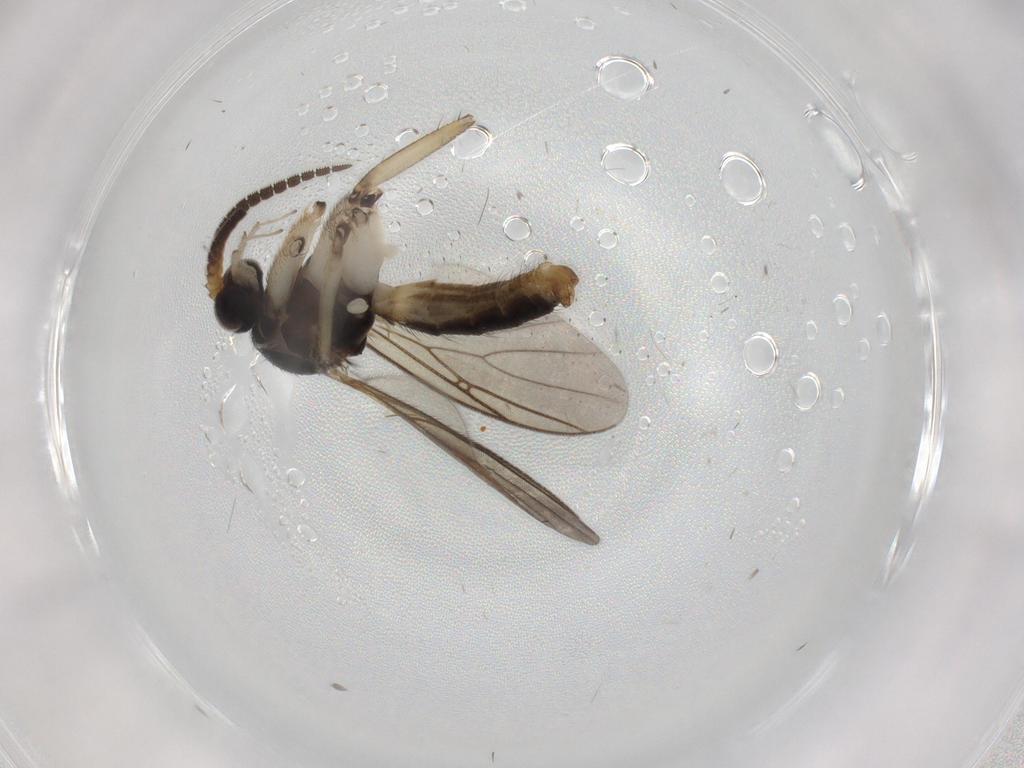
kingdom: Animalia
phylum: Arthropoda
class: Insecta
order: Diptera
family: Mycetophilidae
